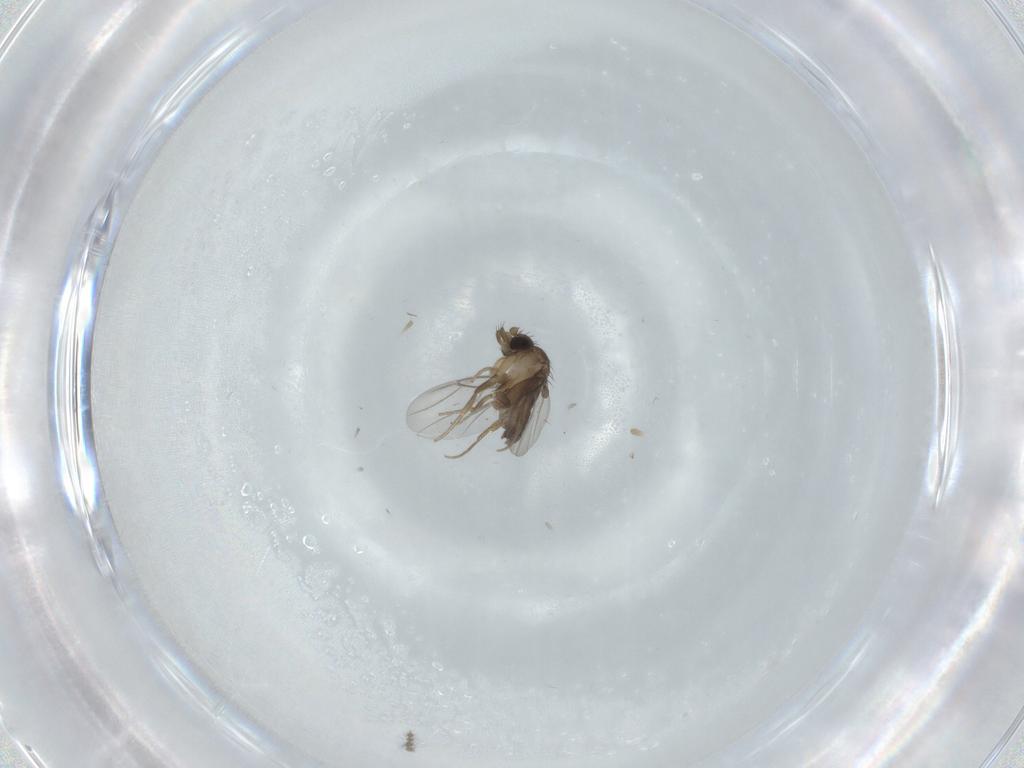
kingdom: Animalia
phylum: Arthropoda
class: Insecta
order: Diptera
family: Phoridae
